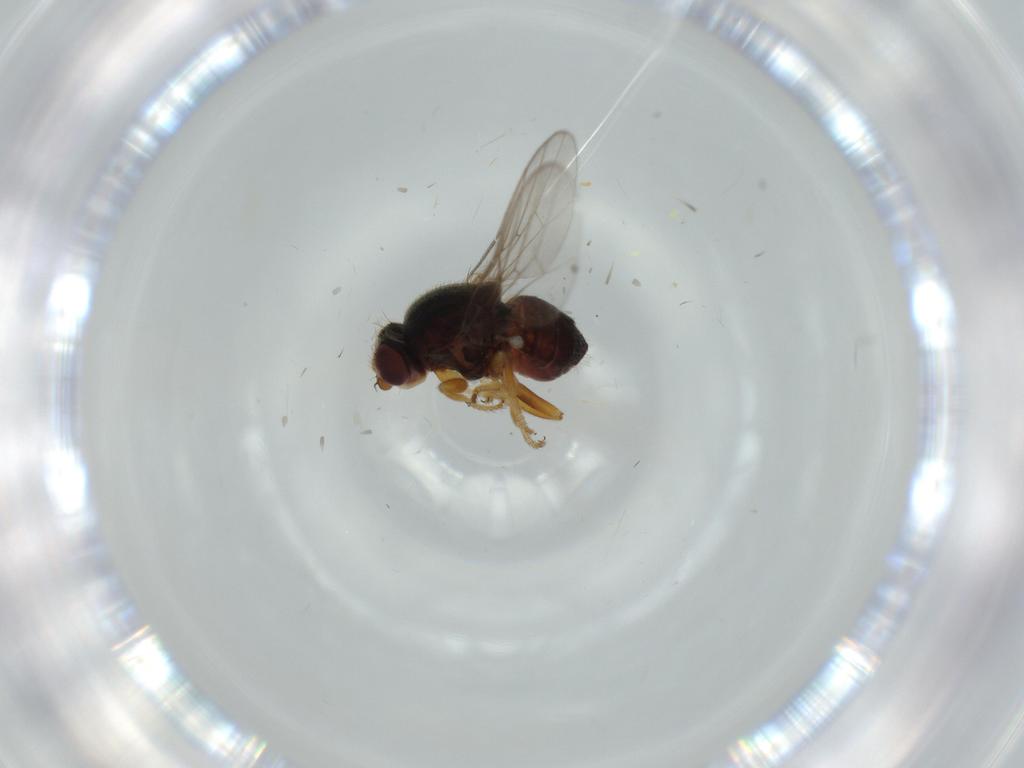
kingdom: Animalia
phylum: Arthropoda
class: Insecta
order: Diptera
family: Chloropidae
